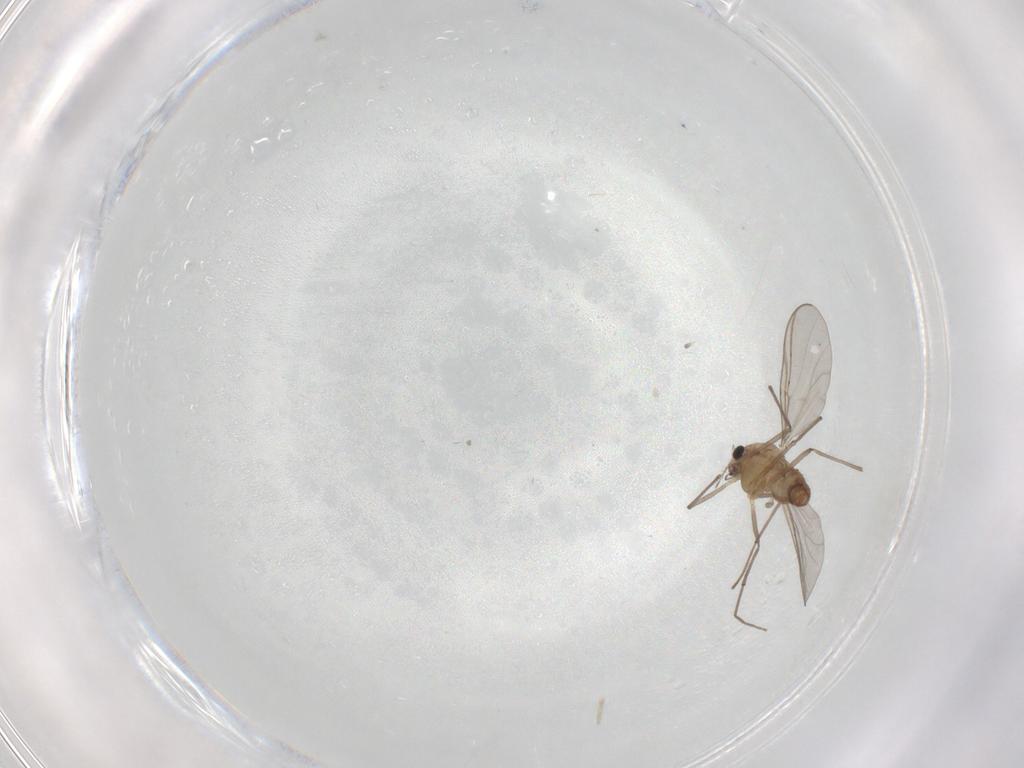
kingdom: Animalia
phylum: Arthropoda
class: Insecta
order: Diptera
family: Chironomidae
